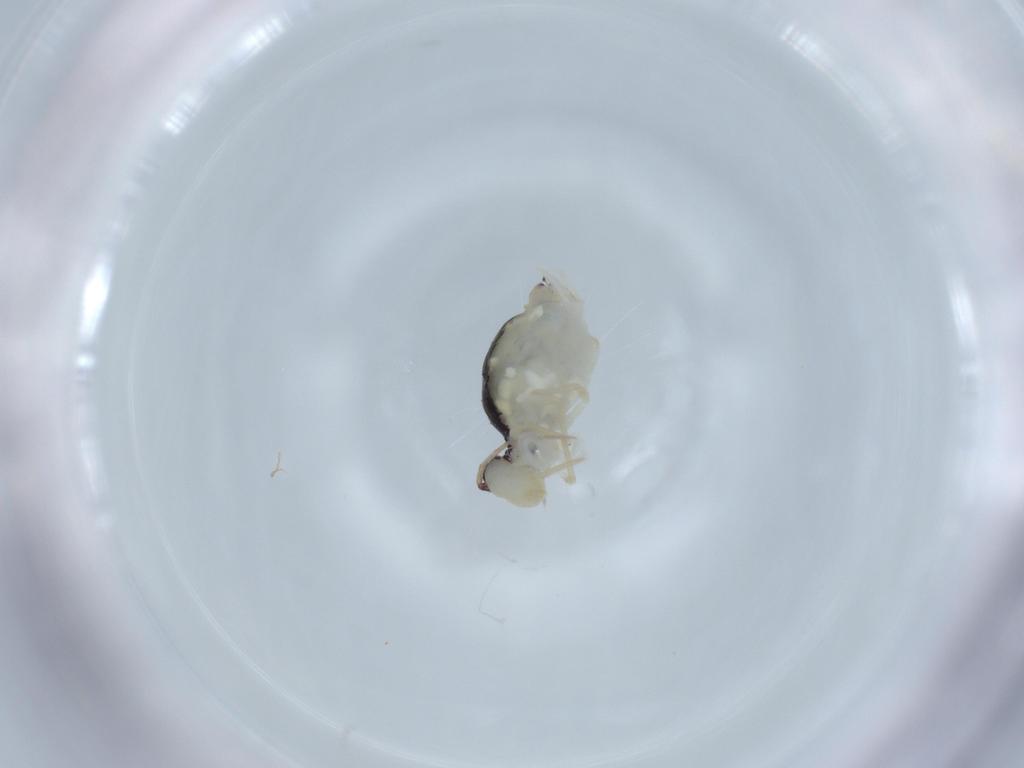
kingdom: Animalia
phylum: Arthropoda
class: Collembola
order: Symphypleona
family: Bourletiellidae
